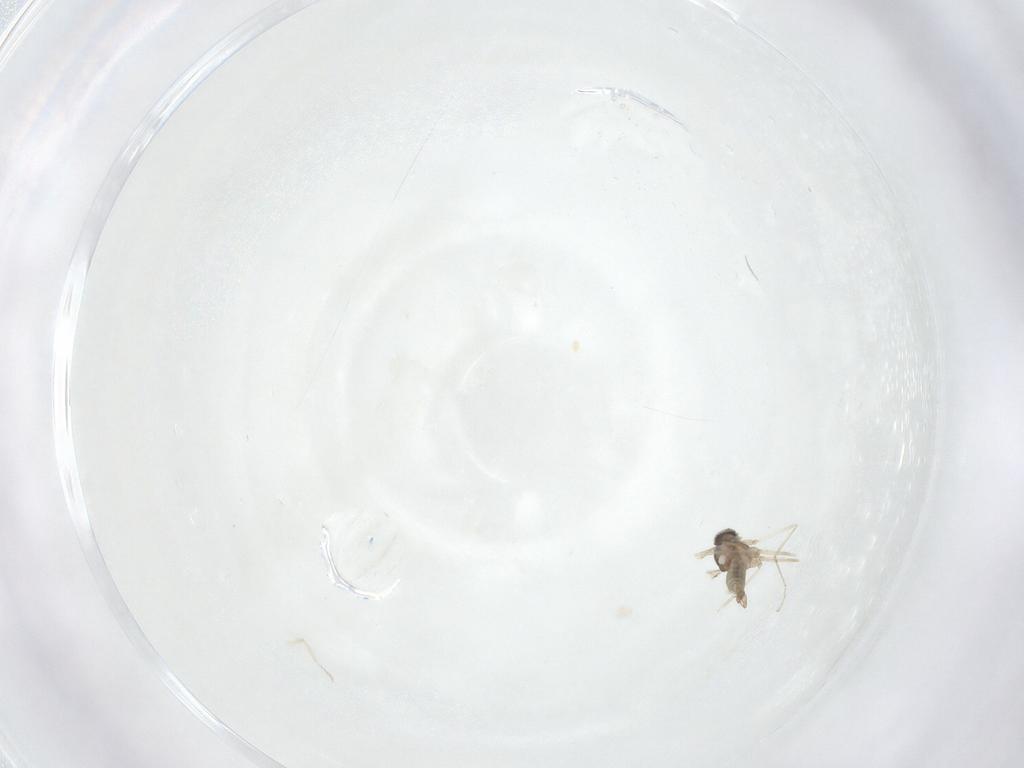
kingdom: Animalia
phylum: Arthropoda
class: Insecta
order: Diptera
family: Cecidomyiidae
